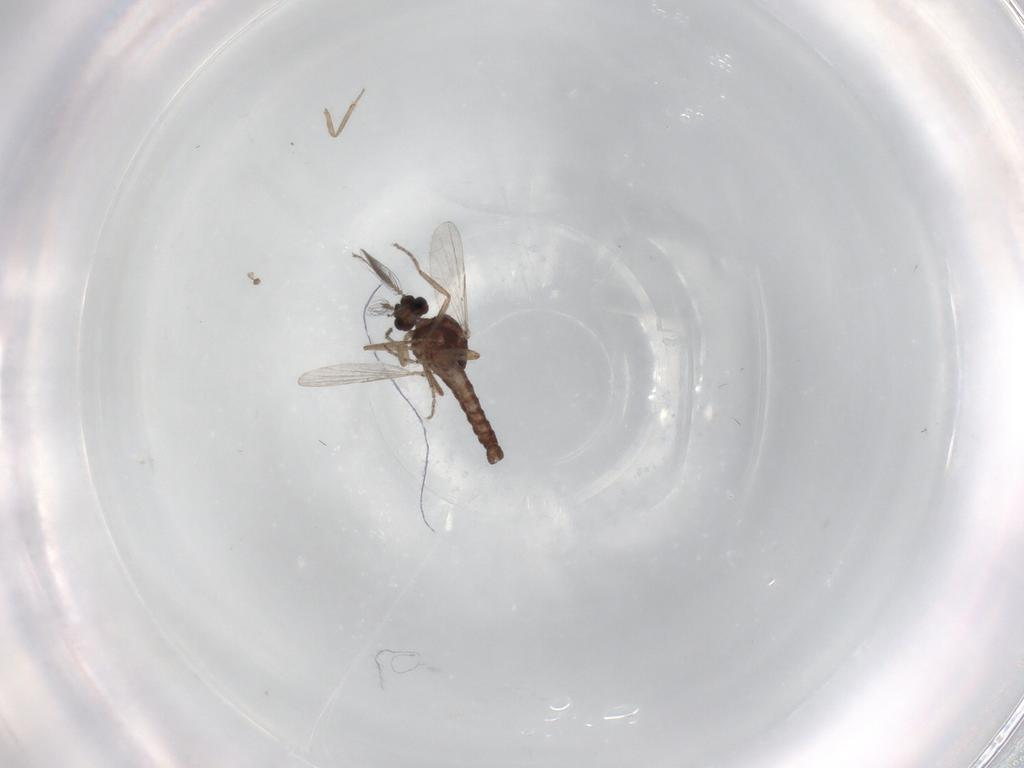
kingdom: Animalia
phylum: Arthropoda
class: Insecta
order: Diptera
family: Ceratopogonidae
